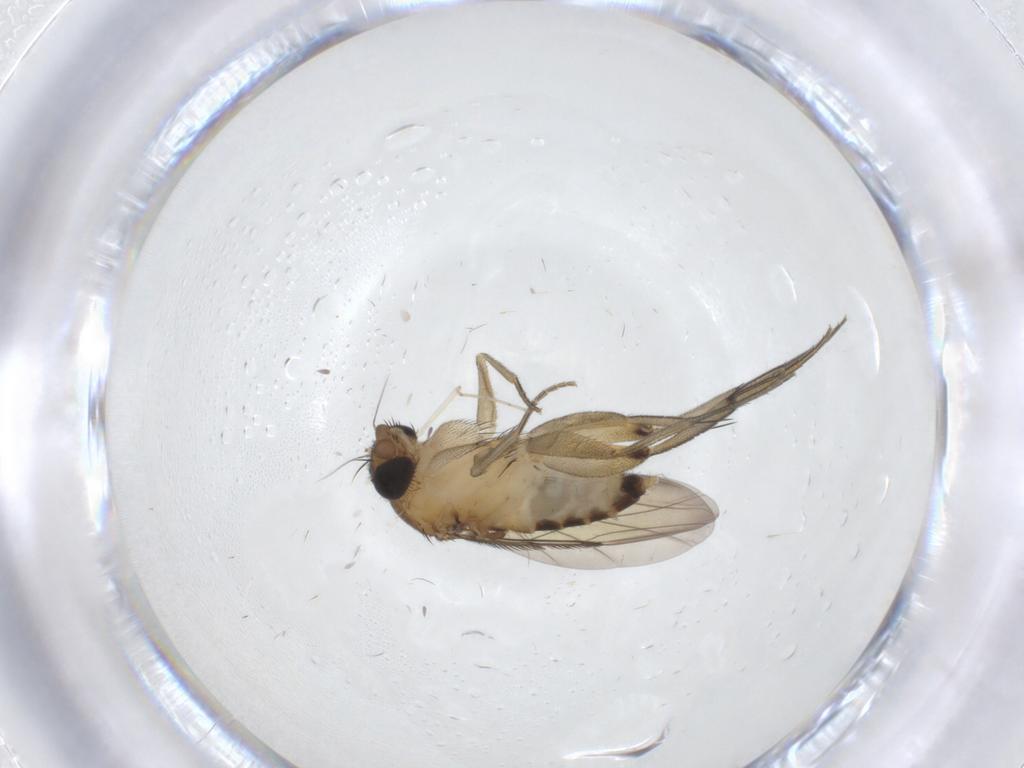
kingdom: Animalia
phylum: Arthropoda
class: Insecta
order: Diptera
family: Phoridae
